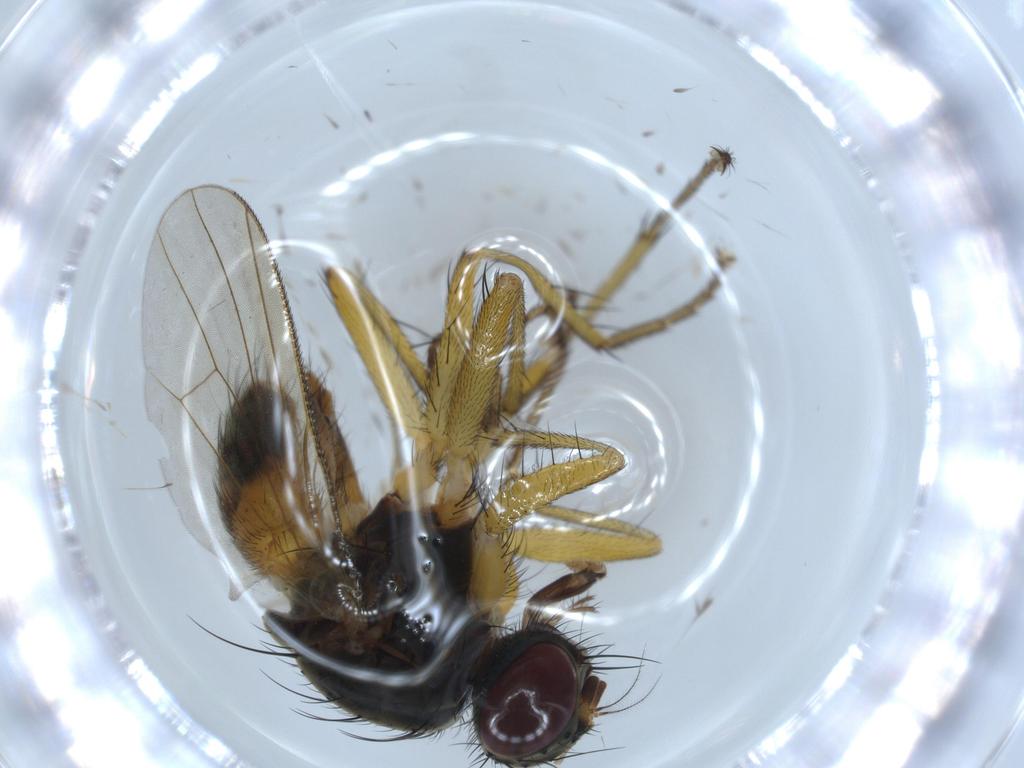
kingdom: Animalia
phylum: Arthropoda
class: Insecta
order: Diptera
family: Muscidae
